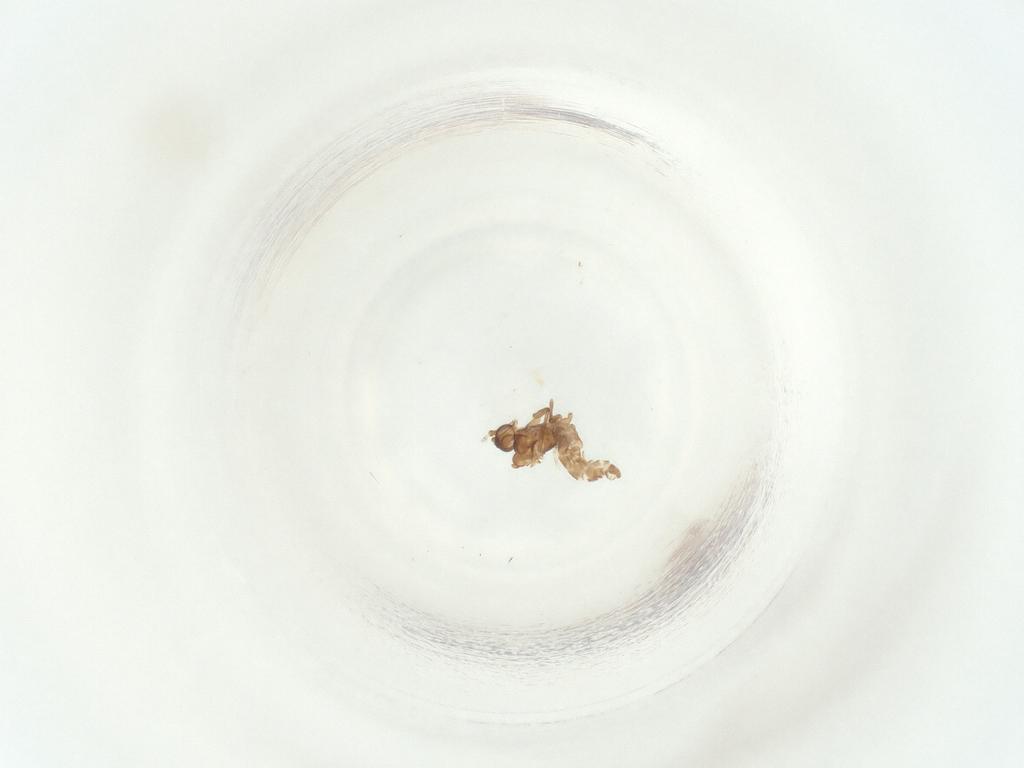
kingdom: Animalia
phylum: Arthropoda
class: Insecta
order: Diptera
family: Sciaridae
